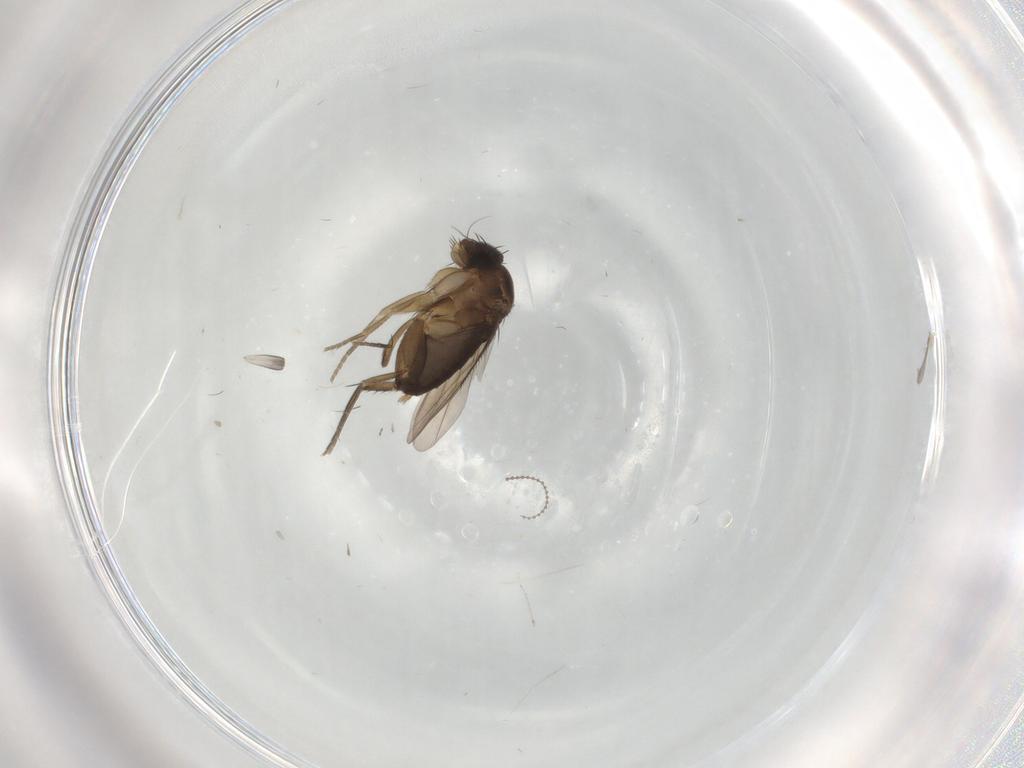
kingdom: Animalia
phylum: Arthropoda
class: Insecta
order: Diptera
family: Phoridae
